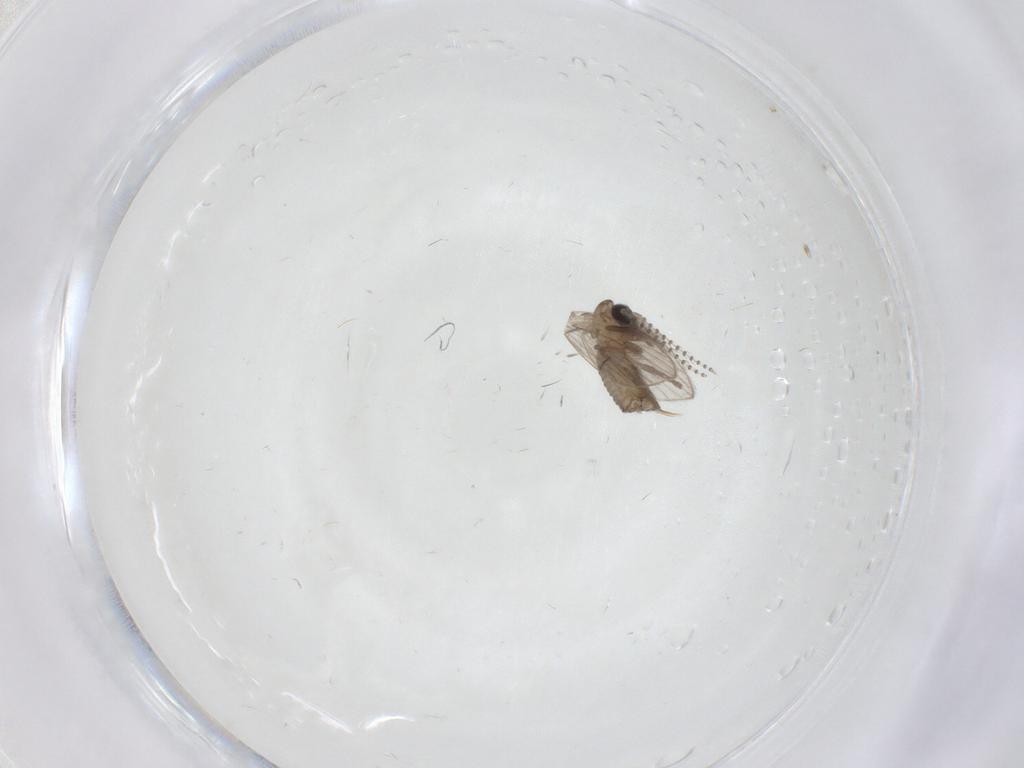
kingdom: Animalia
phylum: Arthropoda
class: Insecta
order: Diptera
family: Psychodidae
